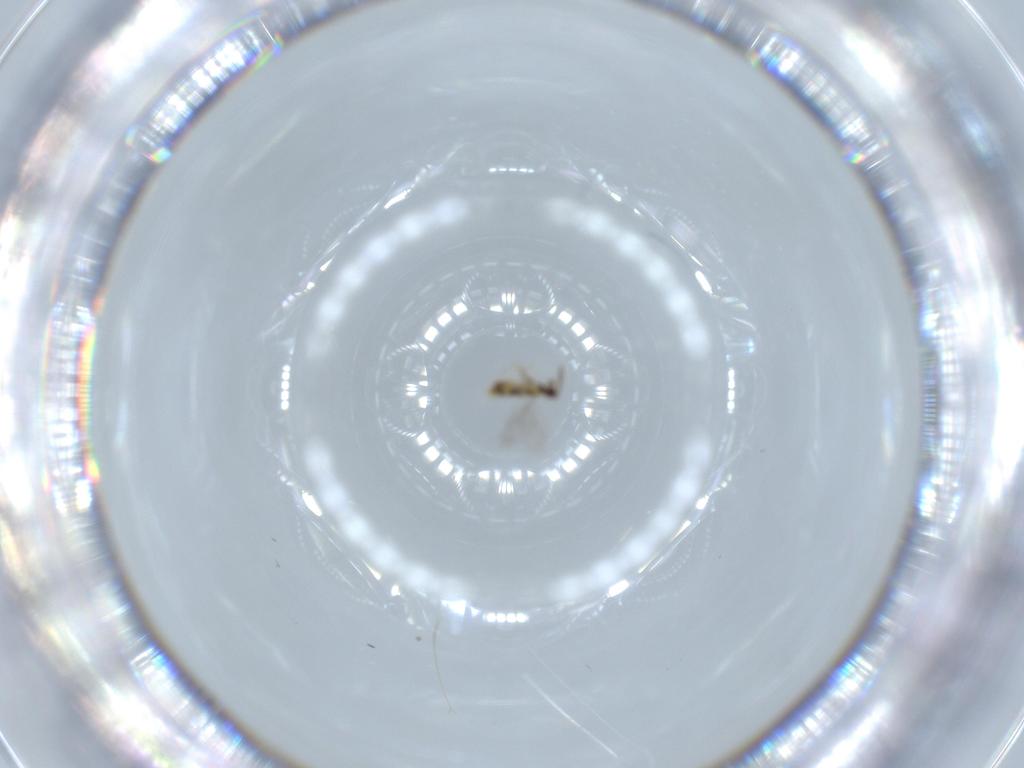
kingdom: Animalia
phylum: Arthropoda
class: Insecta
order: Hymenoptera
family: Aphelinidae
